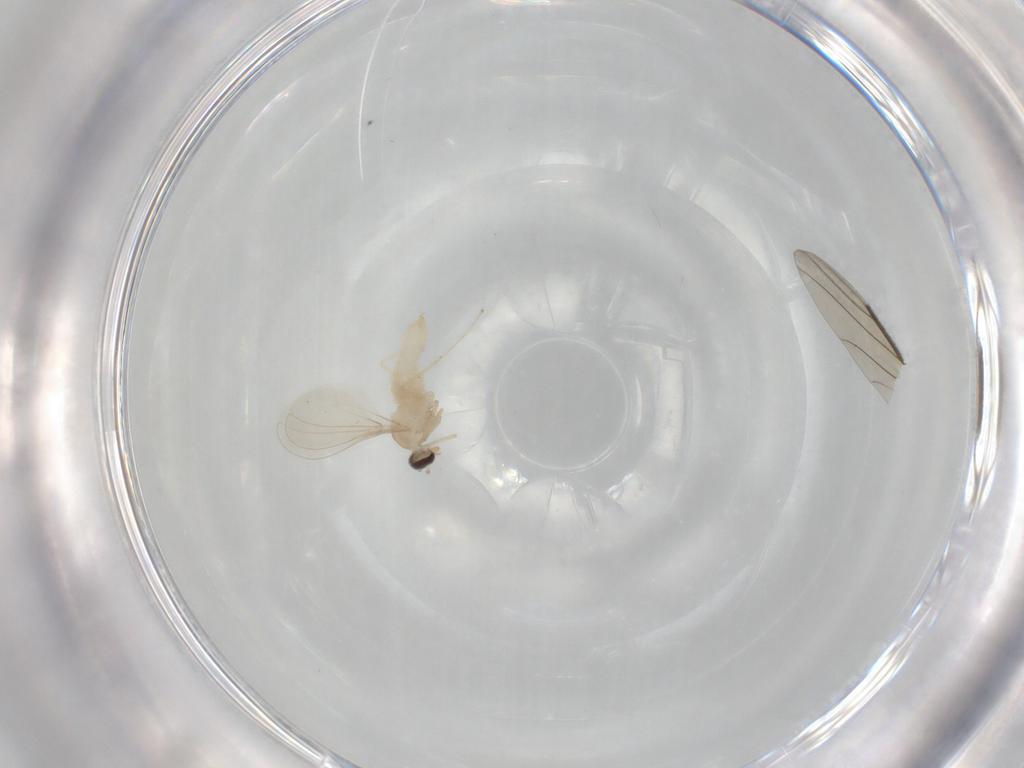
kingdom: Animalia
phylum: Arthropoda
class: Insecta
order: Diptera
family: Cecidomyiidae
